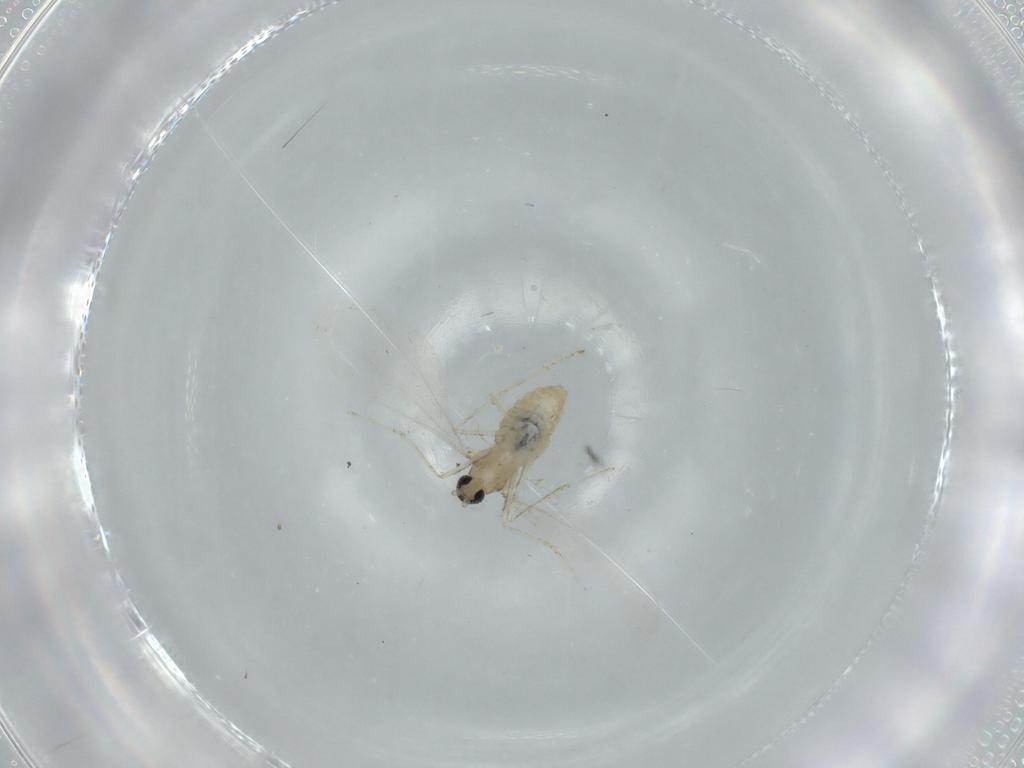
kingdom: Animalia
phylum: Arthropoda
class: Insecta
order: Diptera
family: Cecidomyiidae
